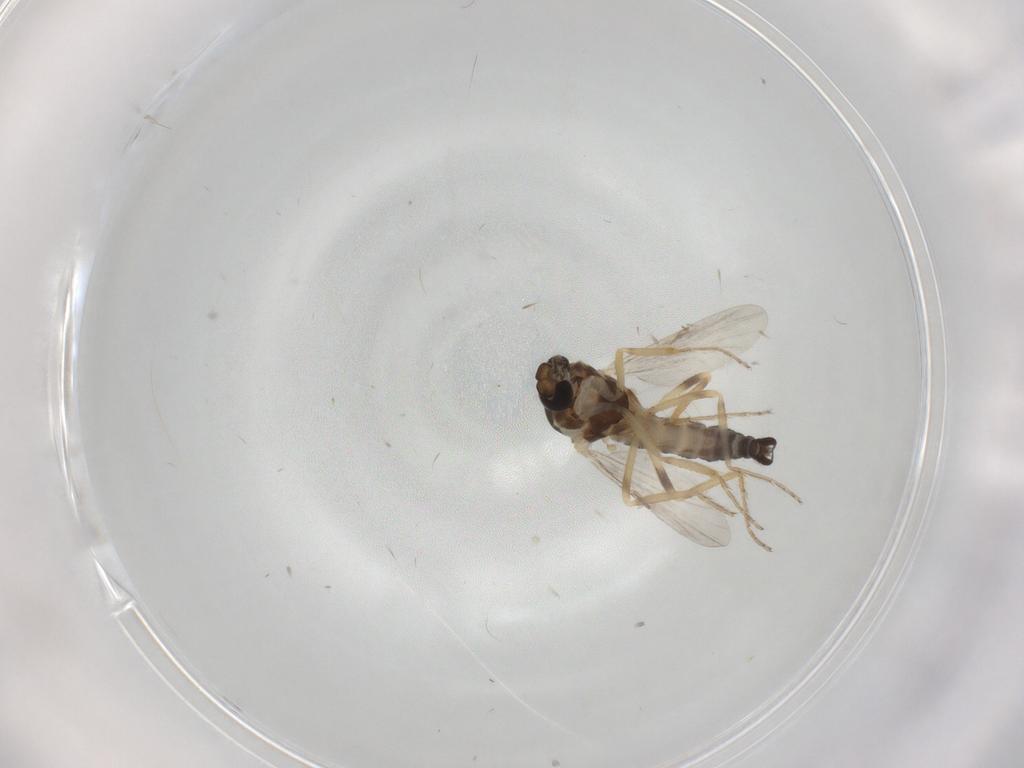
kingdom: Animalia
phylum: Arthropoda
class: Insecta
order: Diptera
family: Ceratopogonidae
